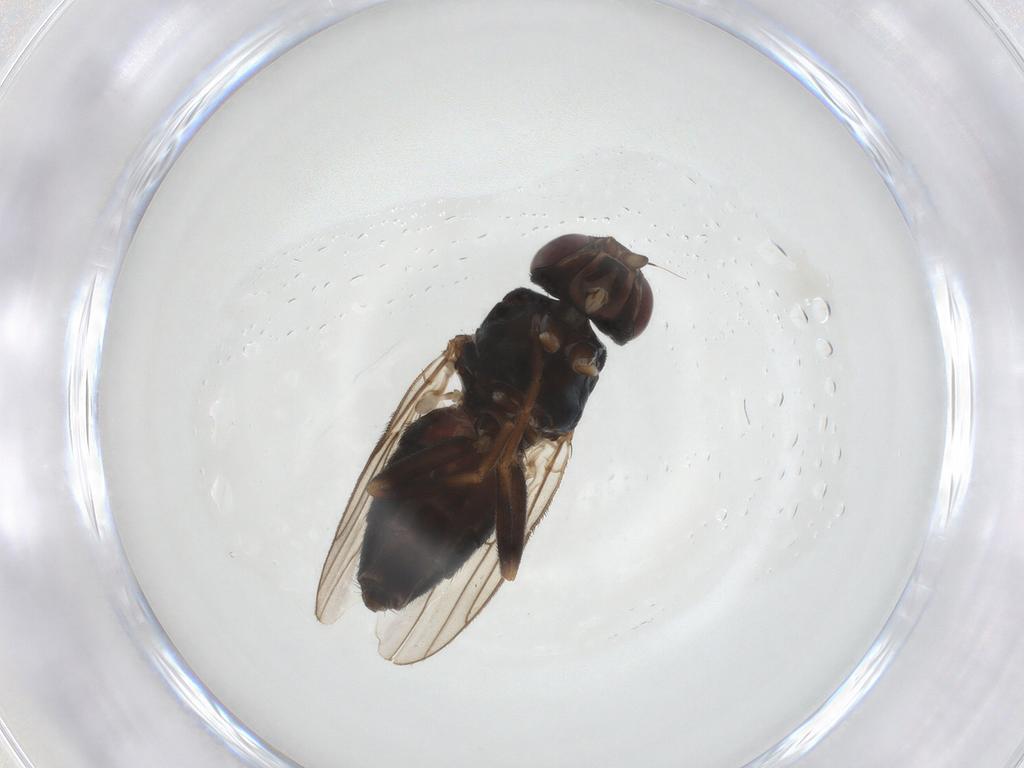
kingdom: Animalia
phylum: Arthropoda
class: Insecta
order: Diptera
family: Chloropidae
